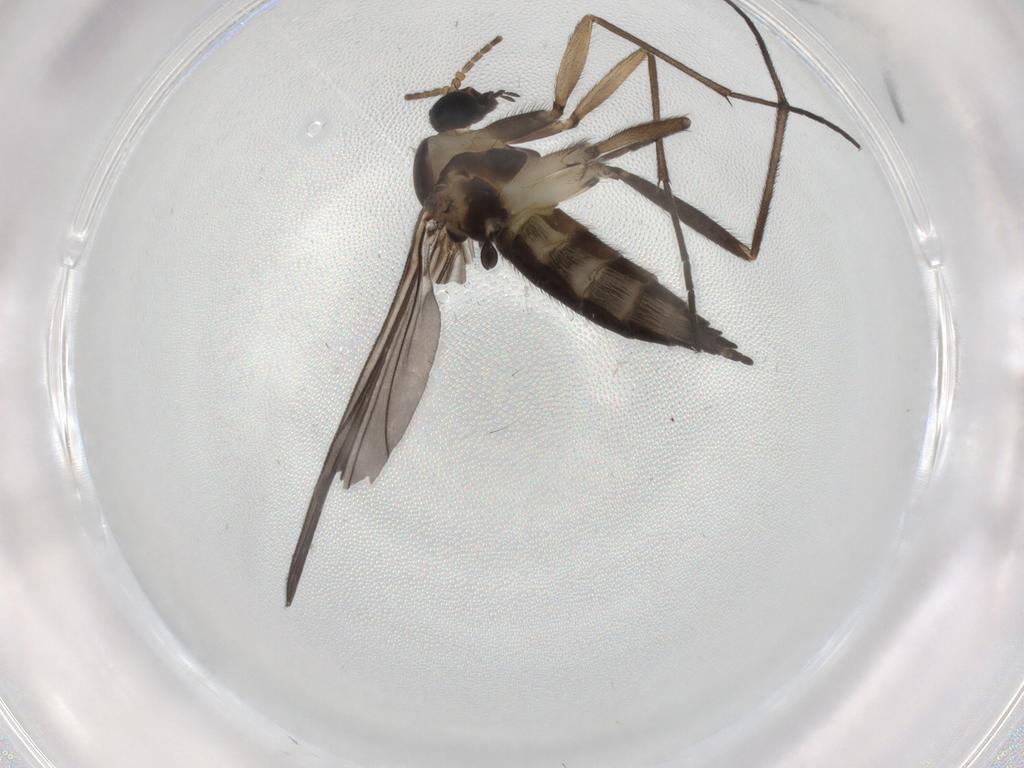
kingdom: Animalia
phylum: Arthropoda
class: Insecta
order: Diptera
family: Sciaridae
